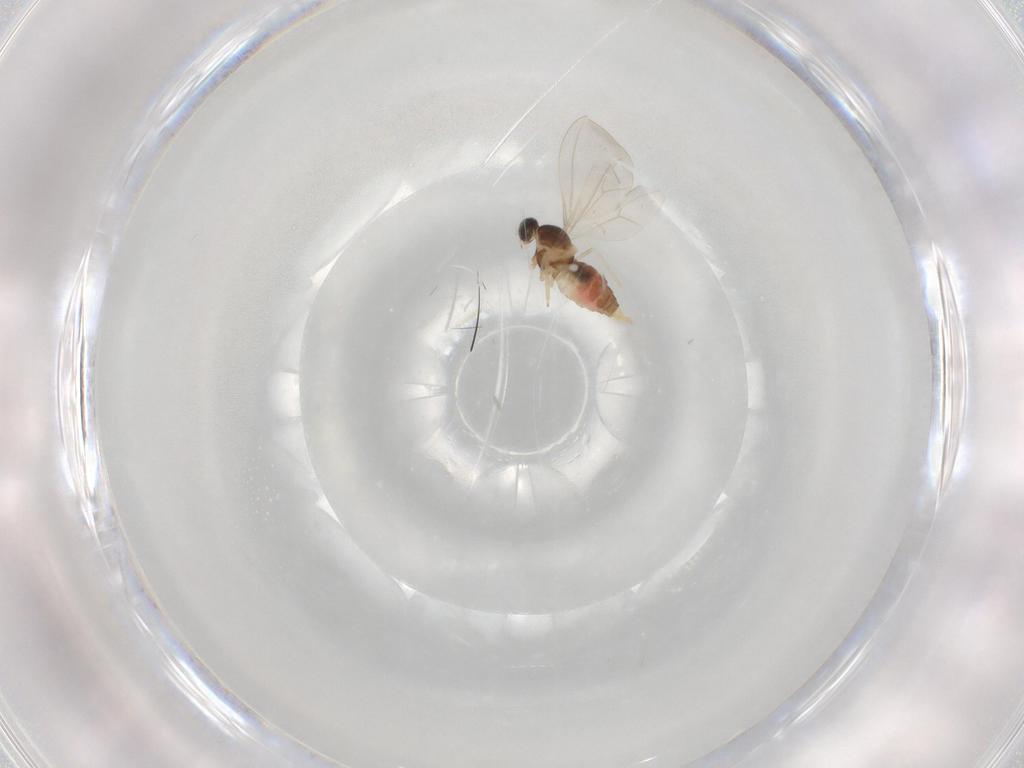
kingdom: Animalia
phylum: Arthropoda
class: Insecta
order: Diptera
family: Cecidomyiidae
